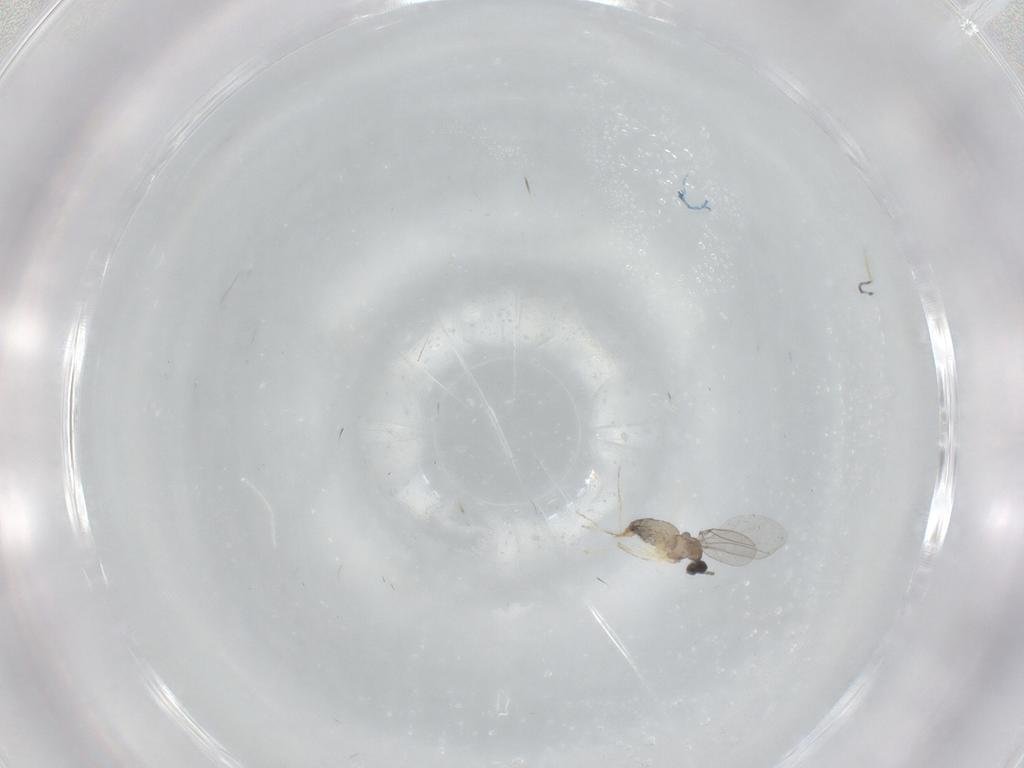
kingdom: Animalia
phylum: Arthropoda
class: Insecta
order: Diptera
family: Cecidomyiidae
